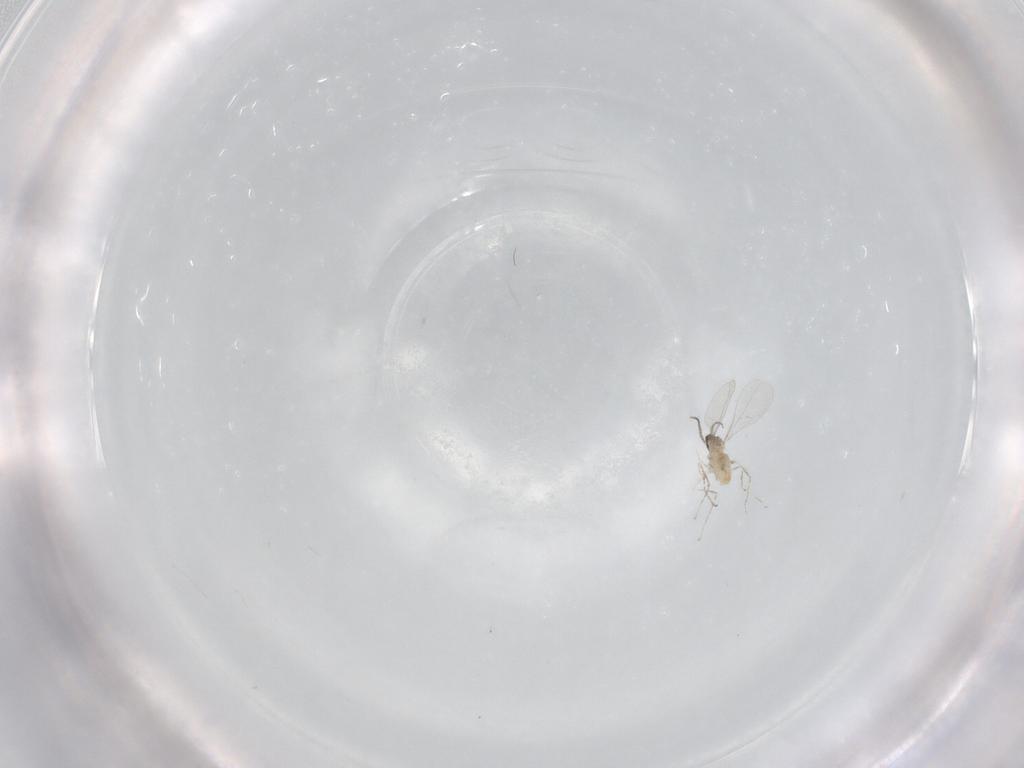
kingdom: Animalia
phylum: Arthropoda
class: Insecta
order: Diptera
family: Cecidomyiidae
